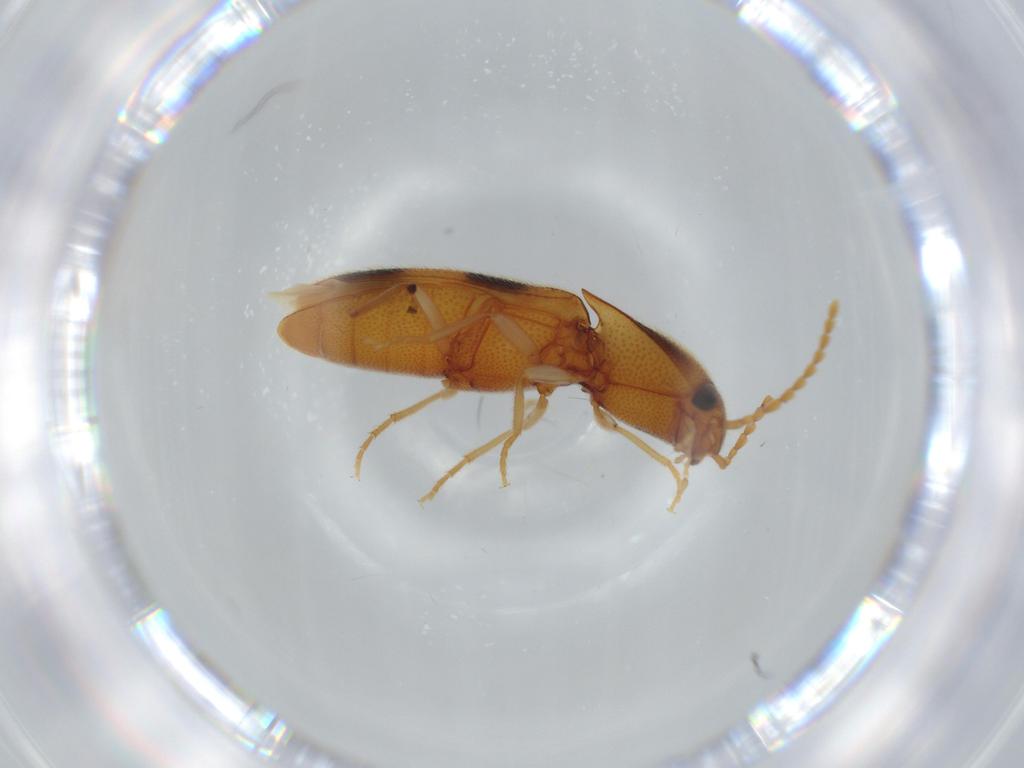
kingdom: Animalia
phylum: Arthropoda
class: Insecta
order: Coleoptera
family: Elateridae
